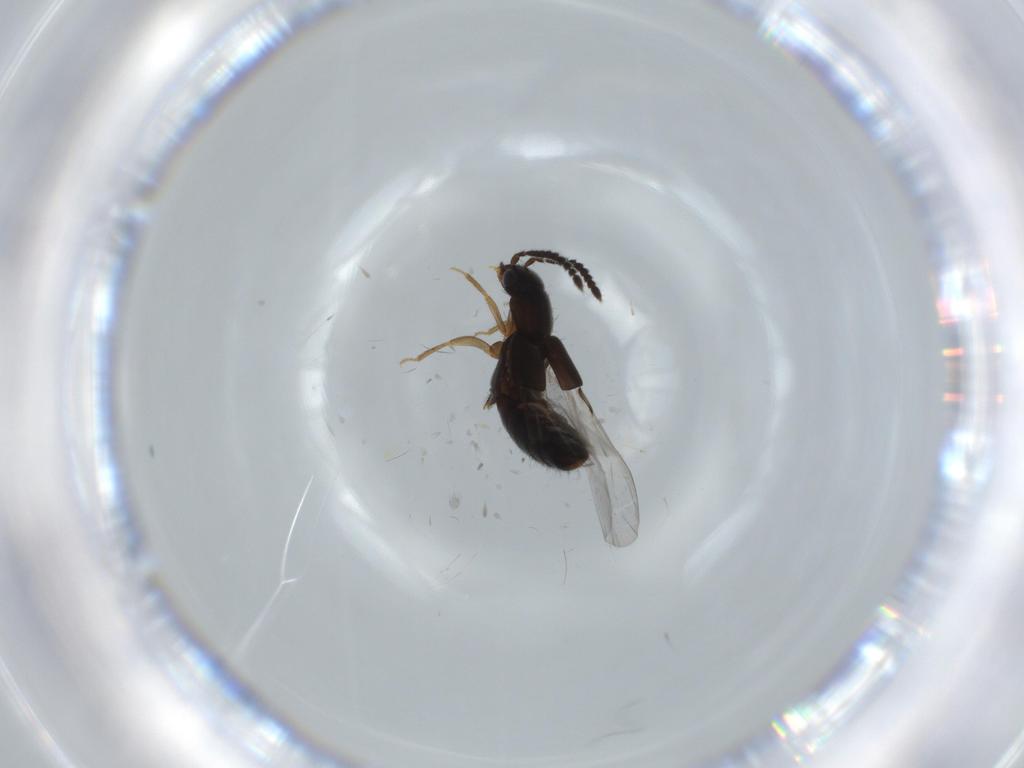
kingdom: Animalia
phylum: Arthropoda
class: Insecta
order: Coleoptera
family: Staphylinidae
